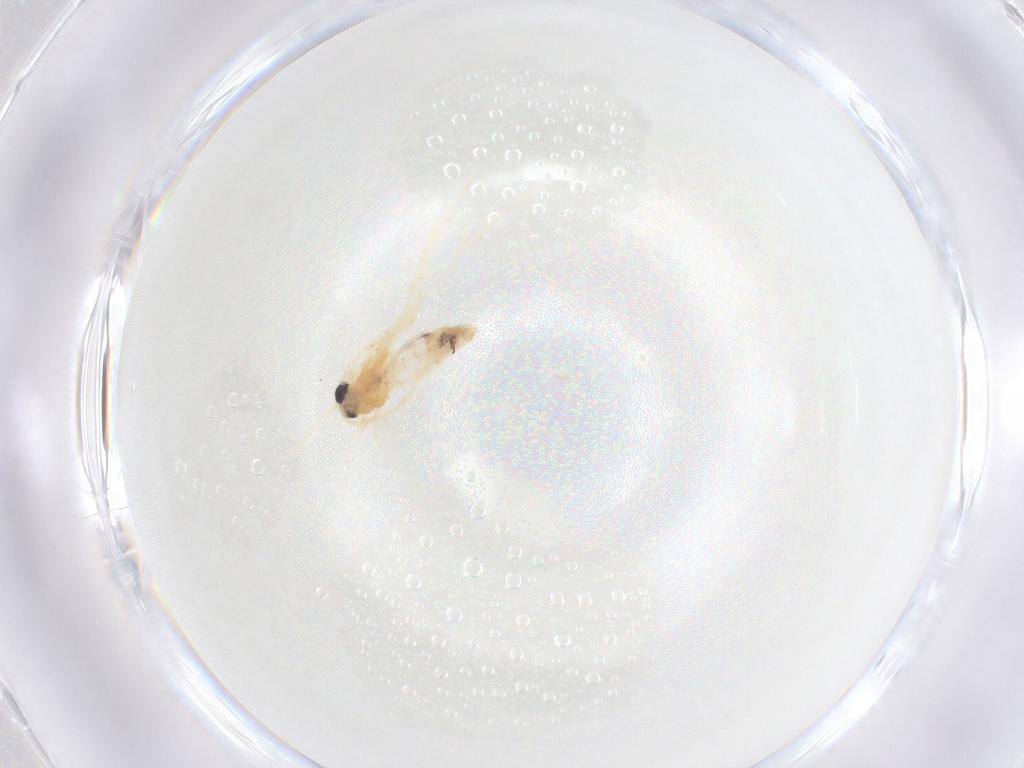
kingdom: Animalia
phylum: Arthropoda
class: Insecta
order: Lepidoptera
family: Nepticulidae
